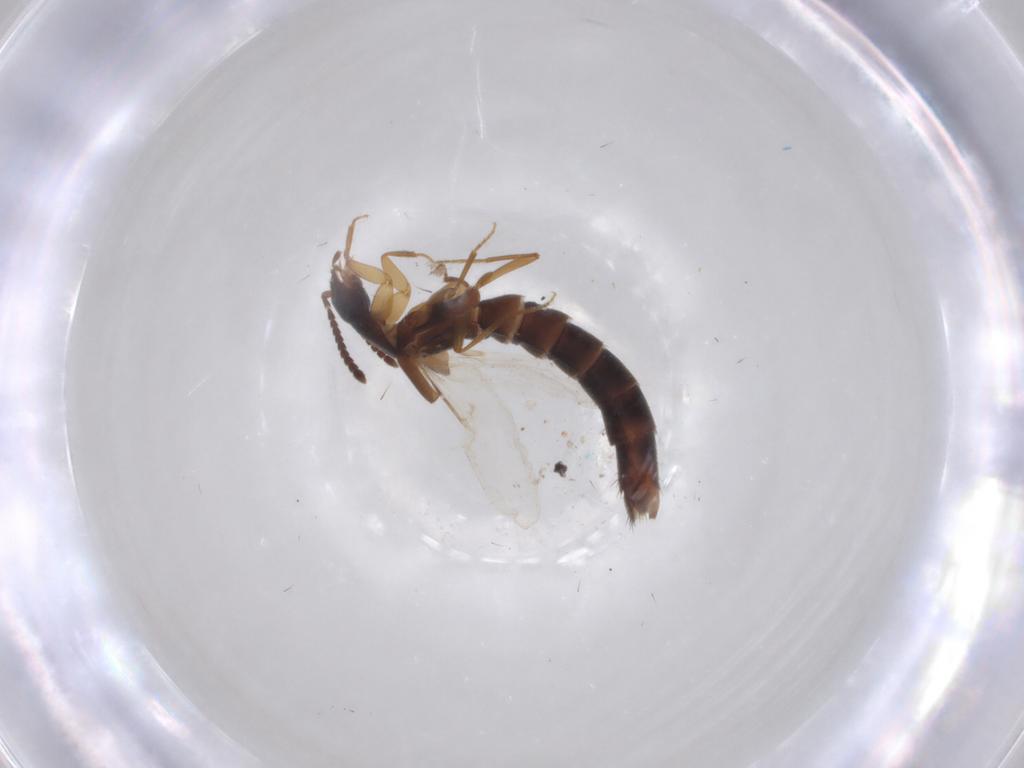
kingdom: Animalia
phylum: Arthropoda
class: Insecta
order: Coleoptera
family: Staphylinidae
